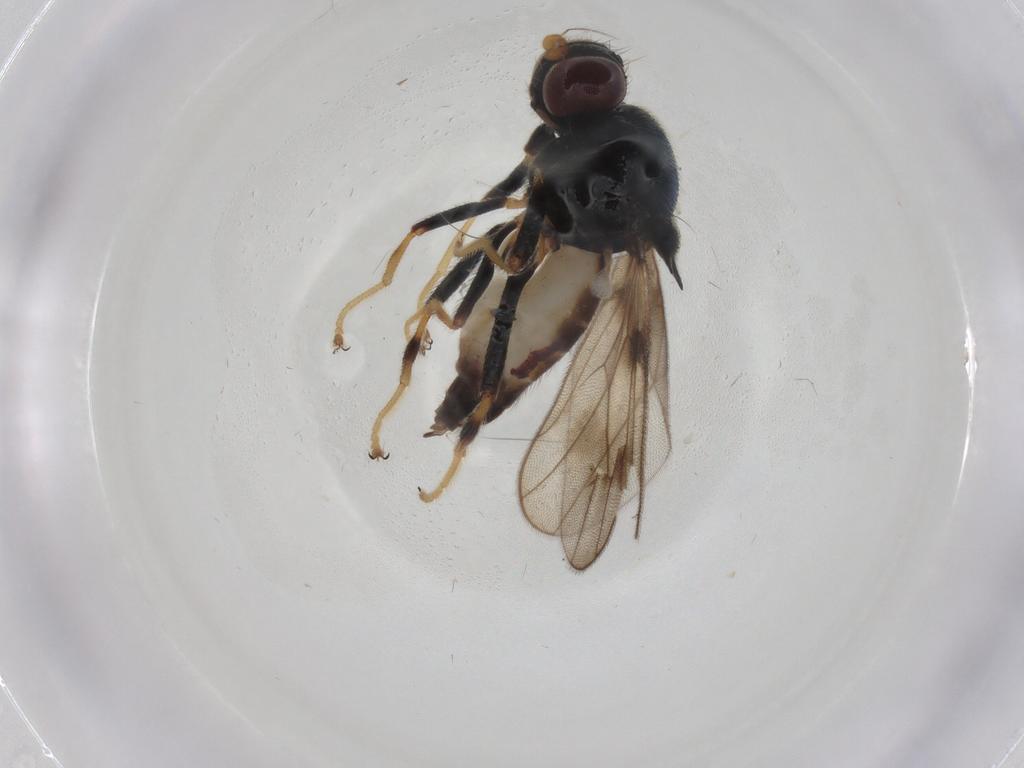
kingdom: Animalia
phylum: Arthropoda
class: Insecta
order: Diptera
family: Chloropidae
